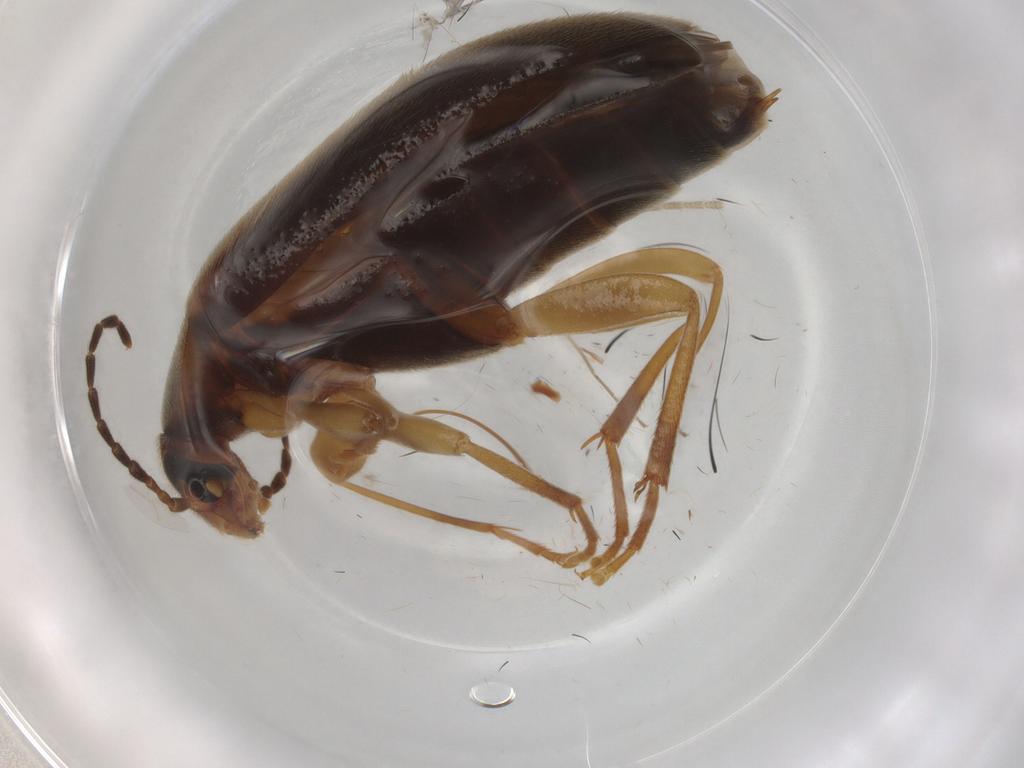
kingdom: Animalia
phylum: Arthropoda
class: Insecta
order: Coleoptera
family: Scraptiidae
